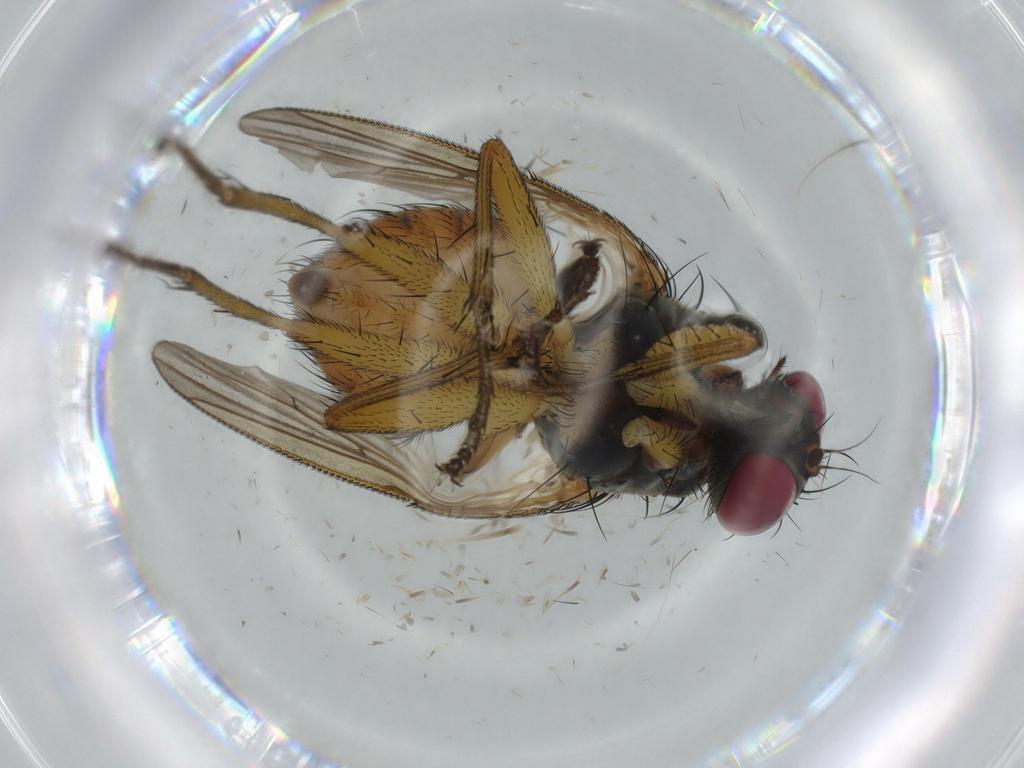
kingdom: Animalia
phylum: Arthropoda
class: Insecta
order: Diptera
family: Muscidae
